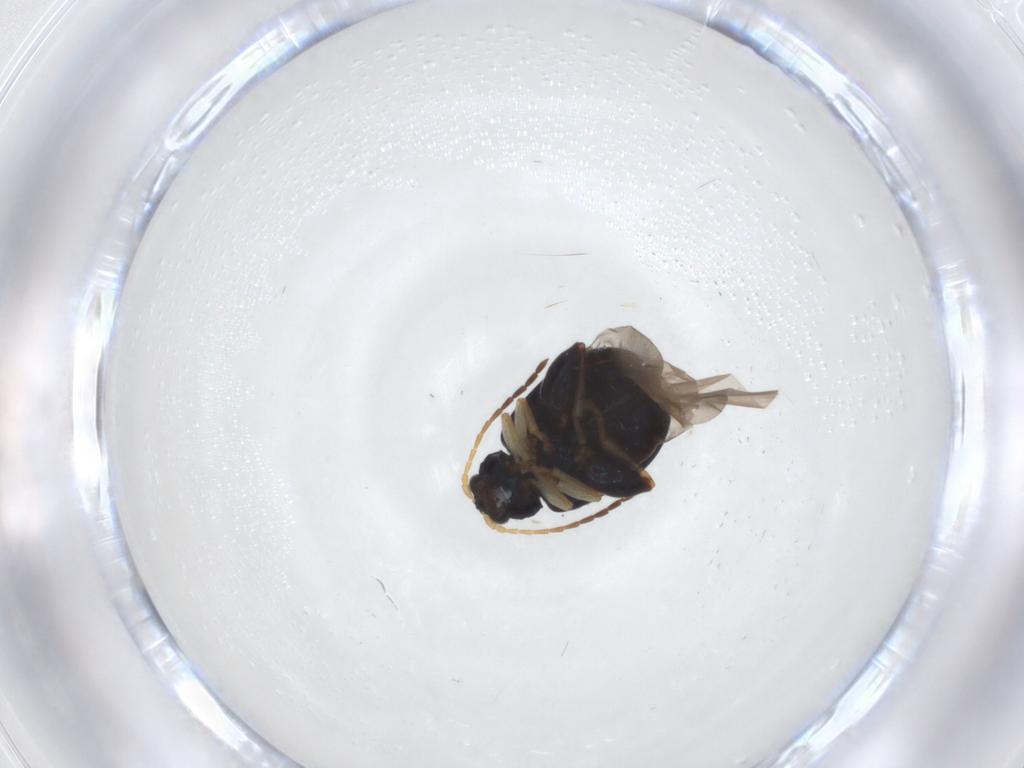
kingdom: Animalia
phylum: Arthropoda
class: Insecta
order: Coleoptera
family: Chrysomelidae
